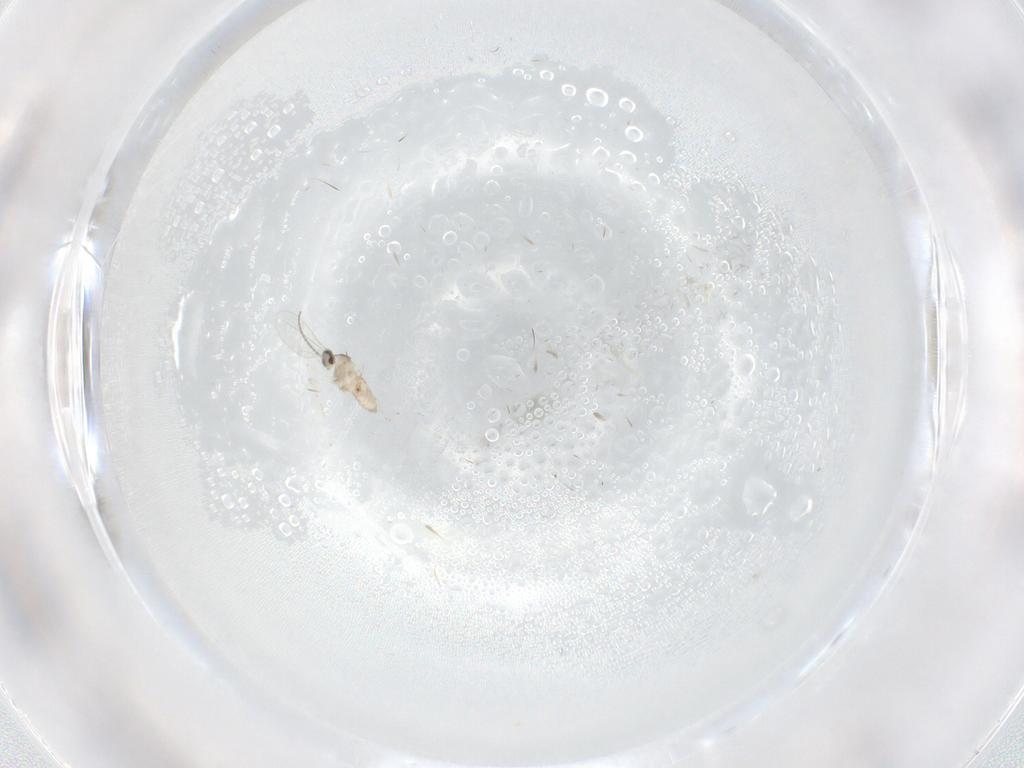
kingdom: Animalia
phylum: Arthropoda
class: Insecta
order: Diptera
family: Cecidomyiidae
